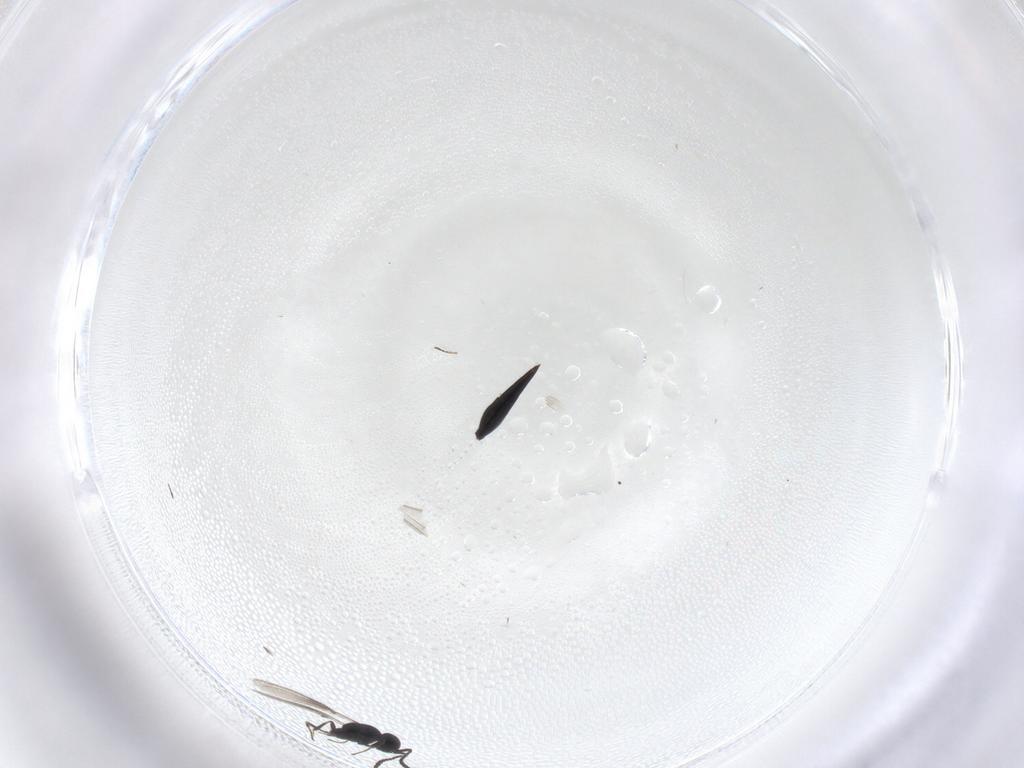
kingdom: Animalia
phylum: Arthropoda
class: Insecta
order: Hymenoptera
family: Scelionidae
